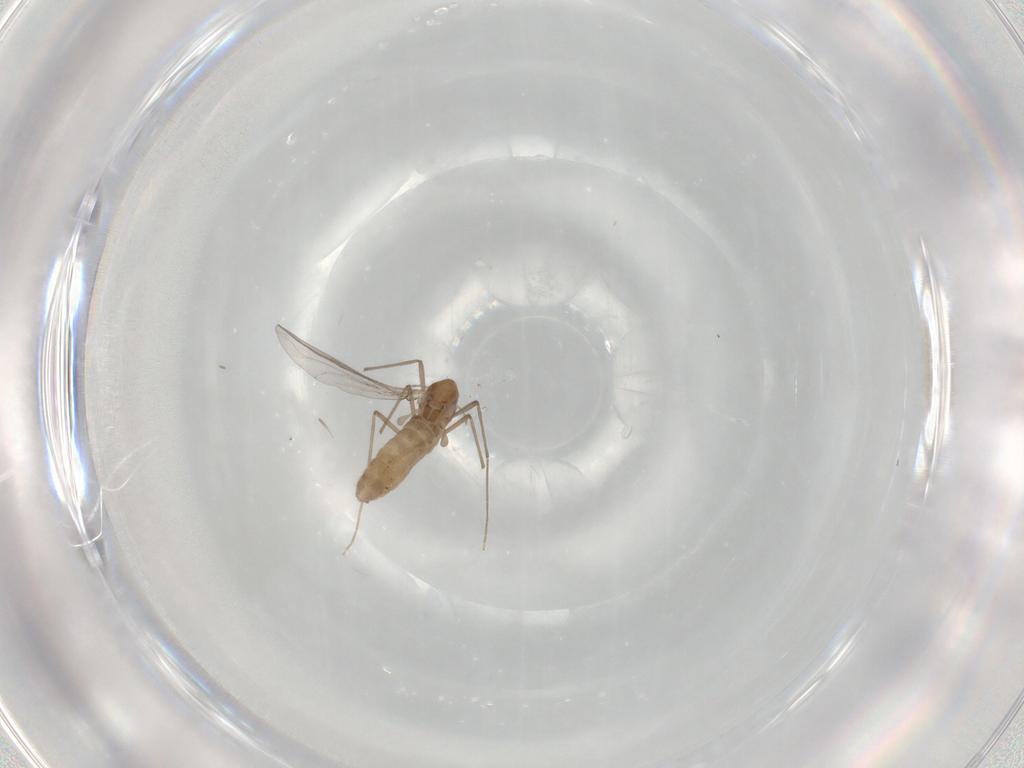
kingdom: Animalia
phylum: Arthropoda
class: Insecta
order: Diptera
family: Chironomidae
